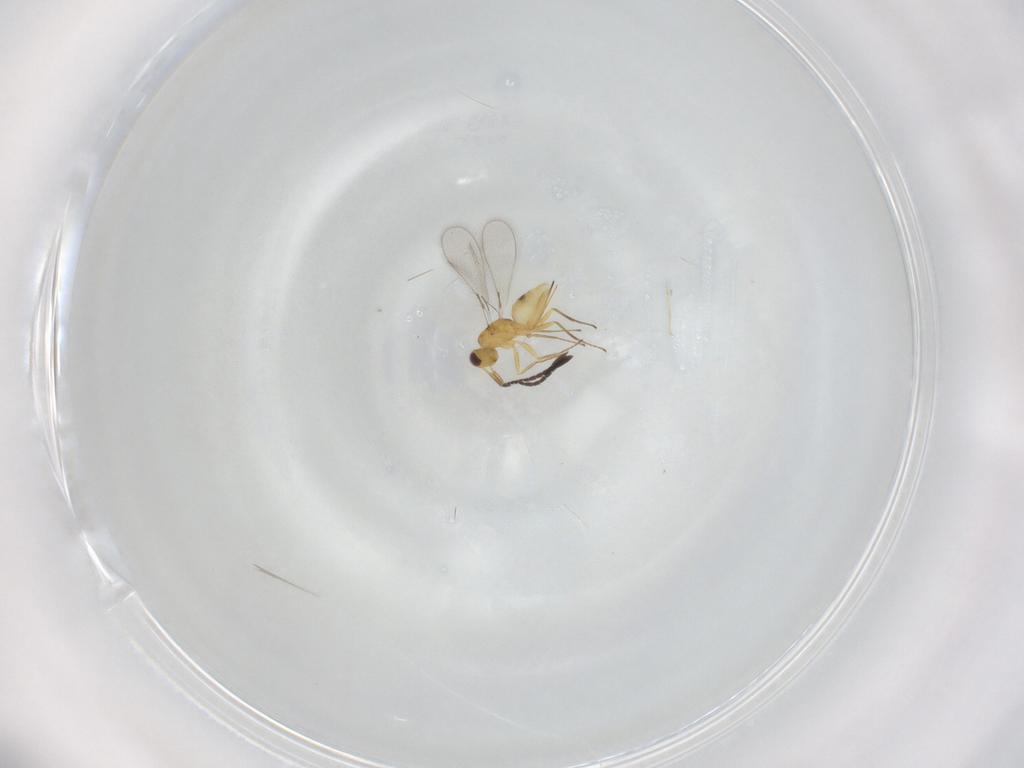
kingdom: Animalia
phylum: Arthropoda
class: Insecta
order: Hymenoptera
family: Mymaridae
